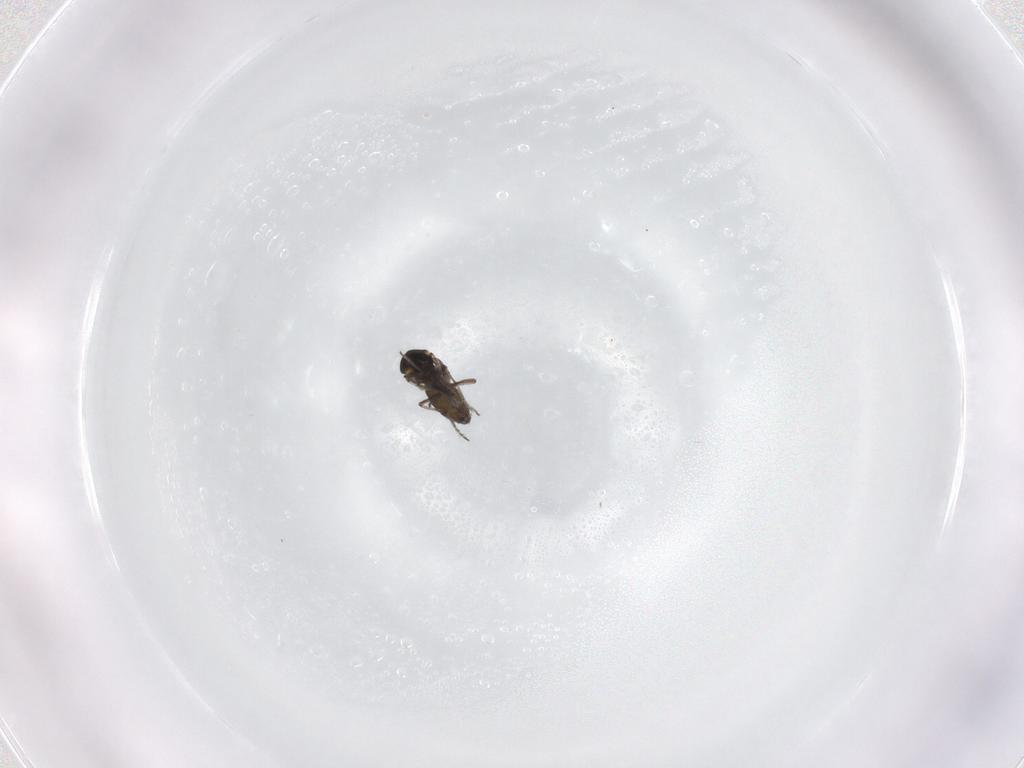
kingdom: Animalia
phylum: Arthropoda
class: Insecta
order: Diptera
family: Ceratopogonidae
